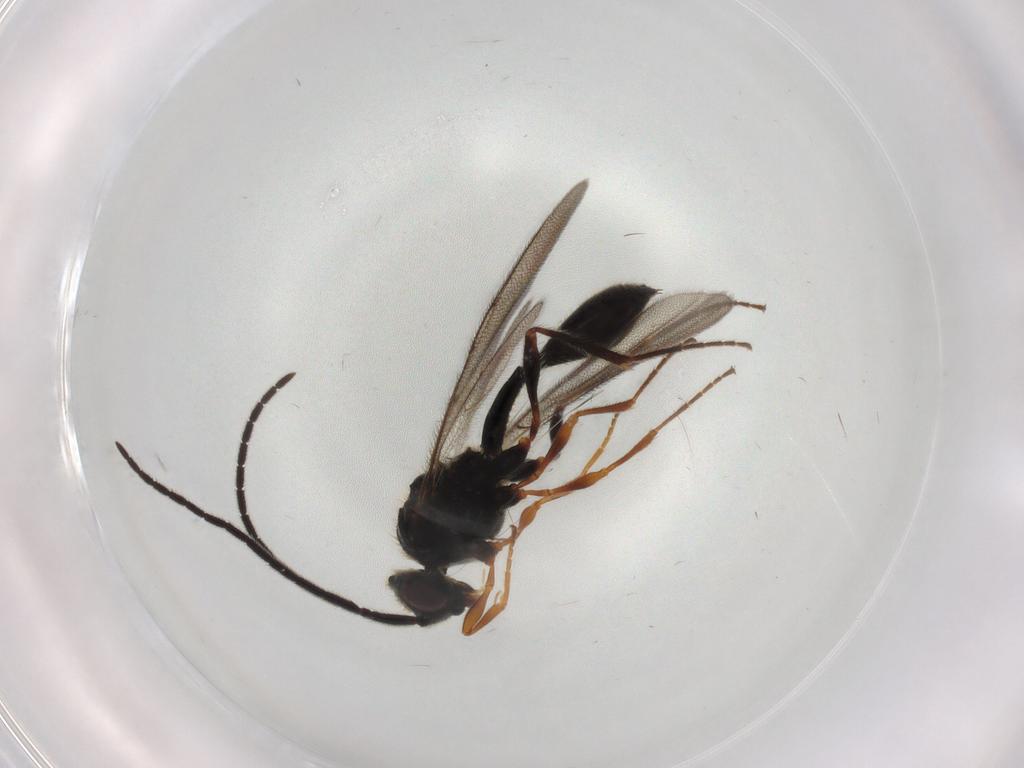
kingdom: Animalia
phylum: Arthropoda
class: Insecta
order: Hymenoptera
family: Diapriidae
